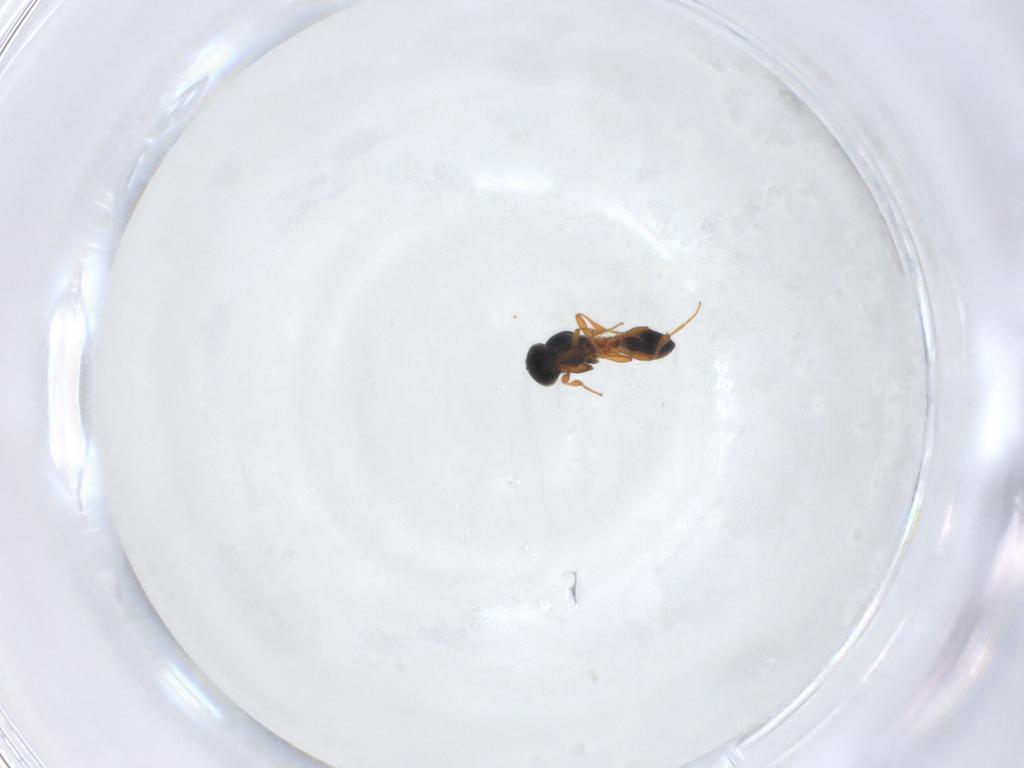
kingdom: Animalia
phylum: Arthropoda
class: Insecta
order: Hymenoptera
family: Platygastridae
